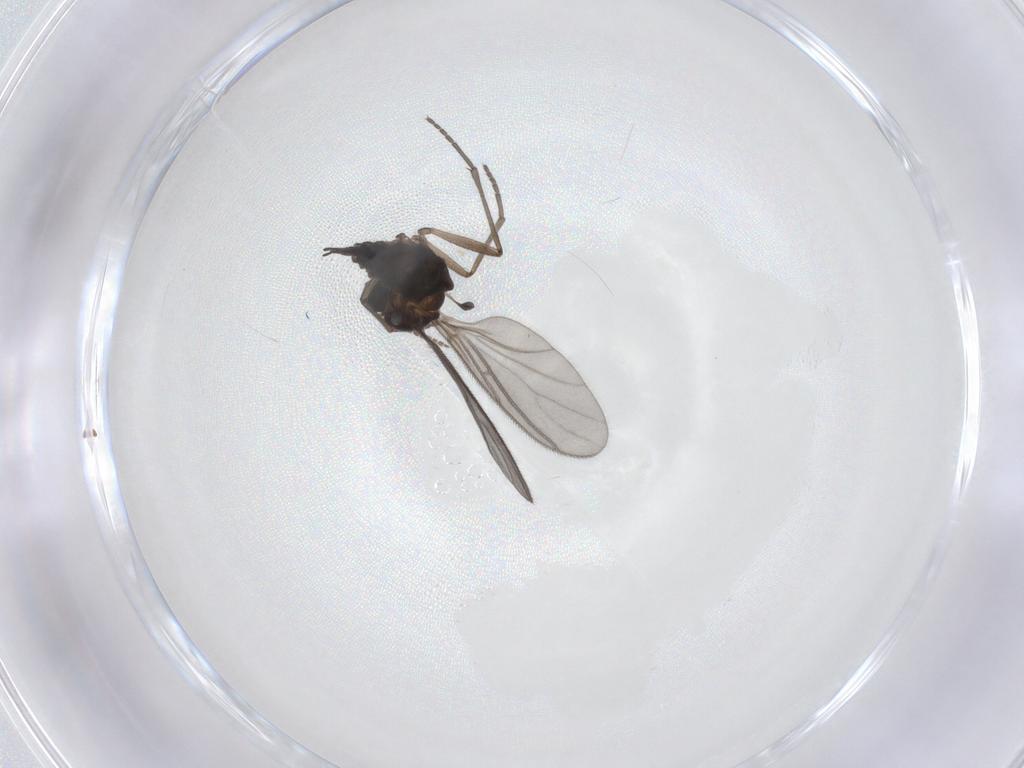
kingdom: Animalia
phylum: Arthropoda
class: Insecta
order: Diptera
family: Sciaridae
